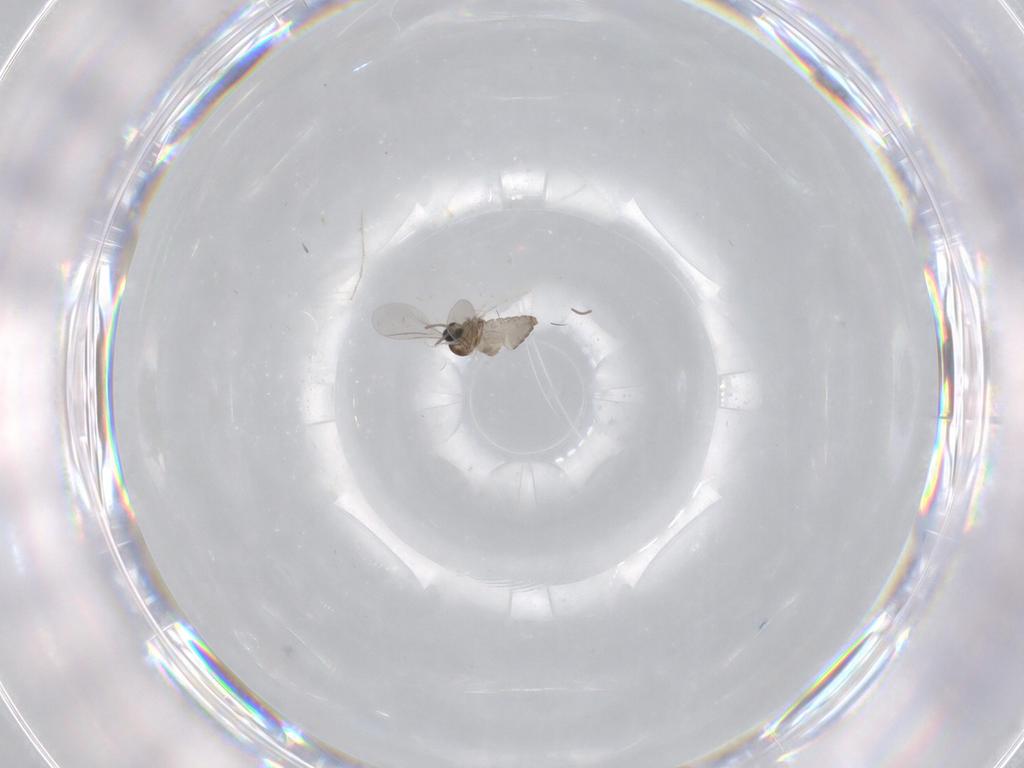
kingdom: Animalia
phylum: Arthropoda
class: Insecta
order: Diptera
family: Cecidomyiidae
